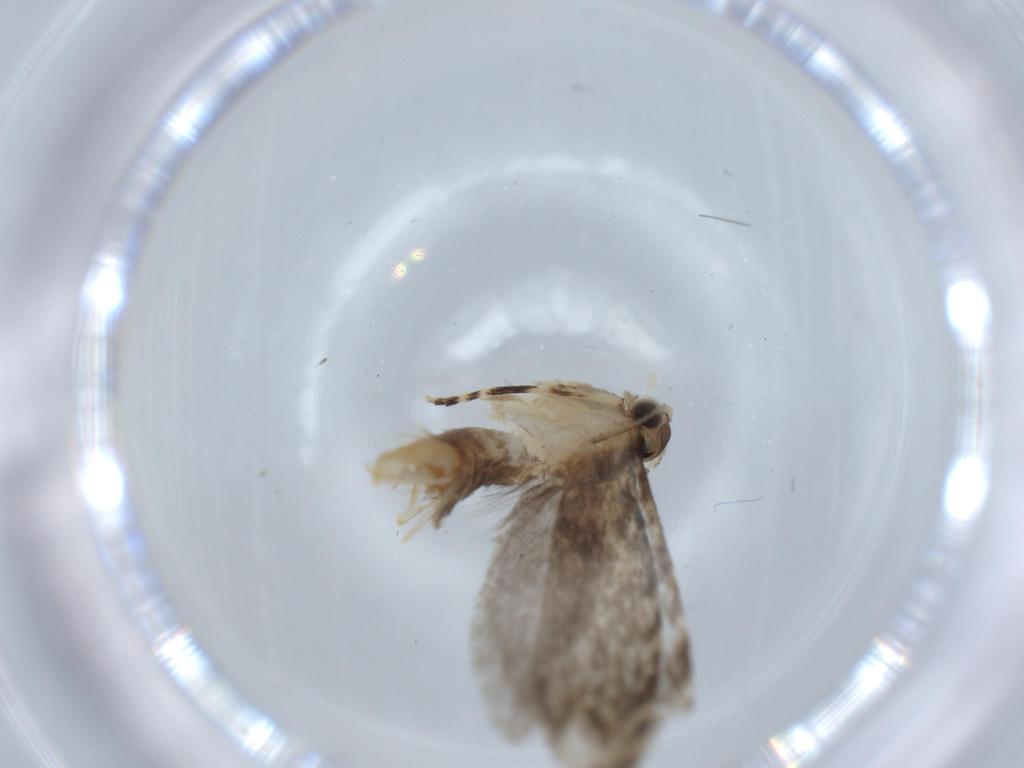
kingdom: Animalia
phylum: Arthropoda
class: Insecta
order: Lepidoptera
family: Tineidae
